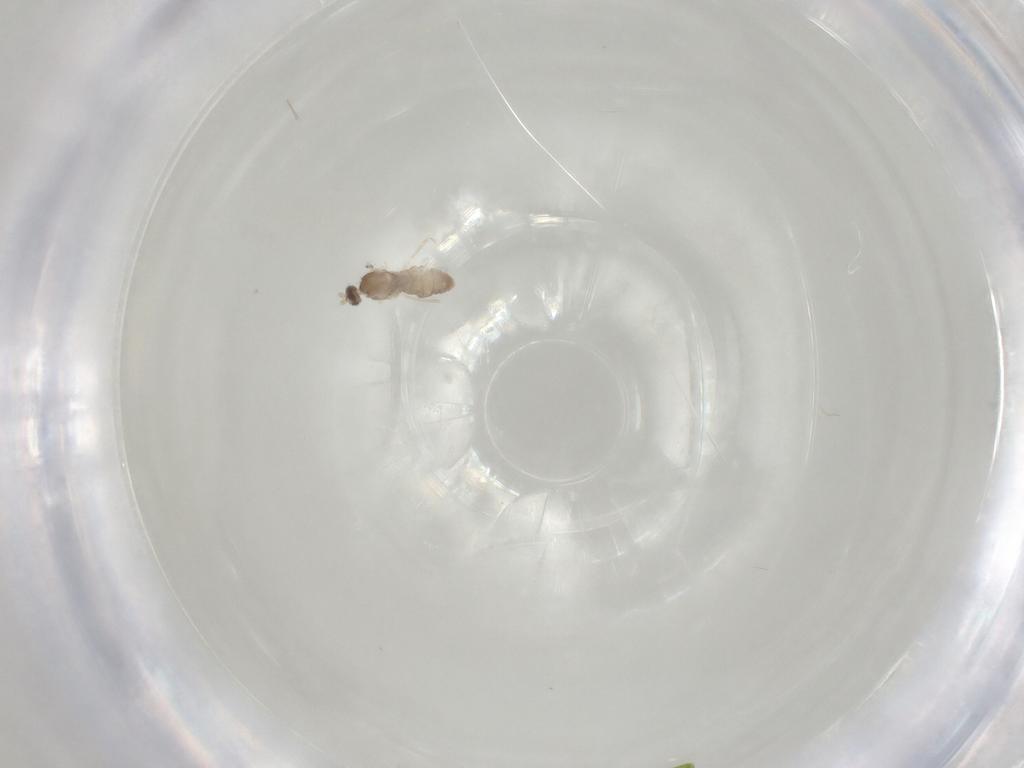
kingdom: Animalia
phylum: Arthropoda
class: Insecta
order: Diptera
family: Cecidomyiidae
